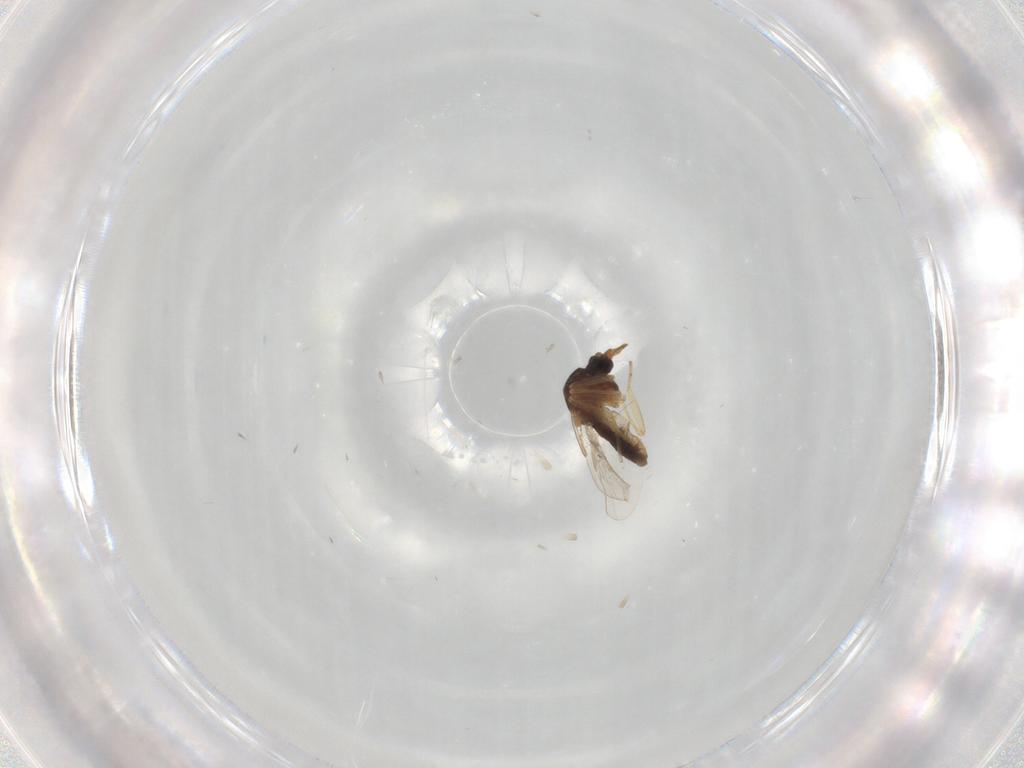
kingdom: Animalia
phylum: Arthropoda
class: Insecta
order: Diptera
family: Ceratopogonidae
